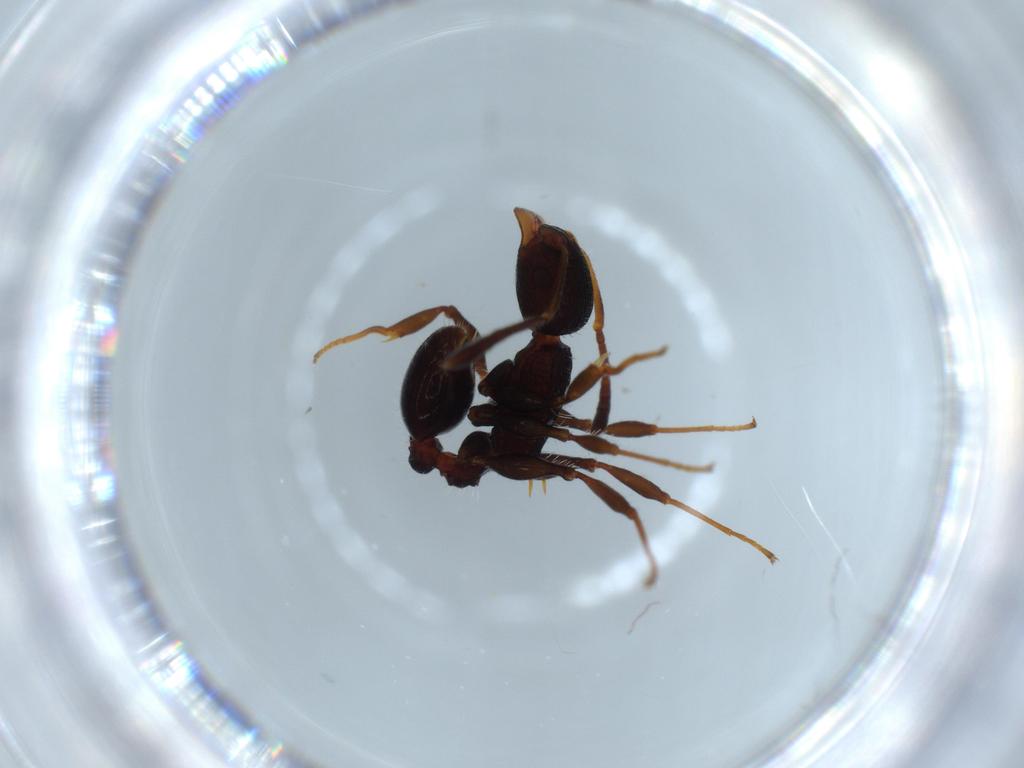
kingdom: Animalia
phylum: Arthropoda
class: Insecta
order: Hymenoptera
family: Formicidae
